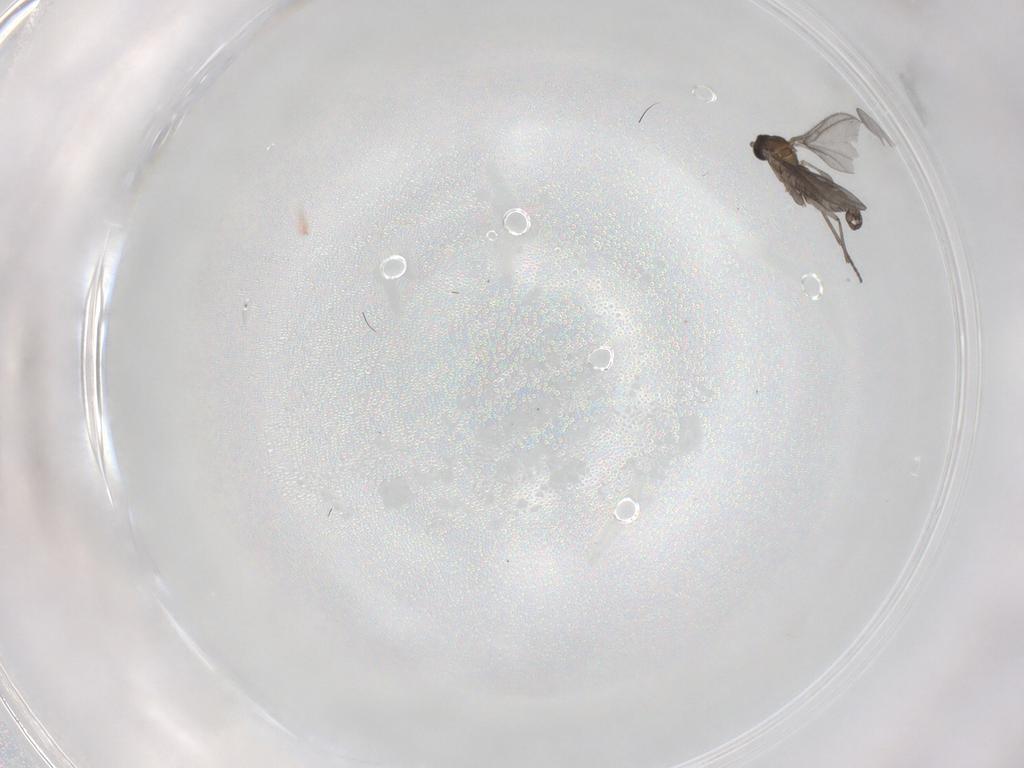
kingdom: Animalia
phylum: Arthropoda
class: Insecta
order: Diptera
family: Sciaridae
